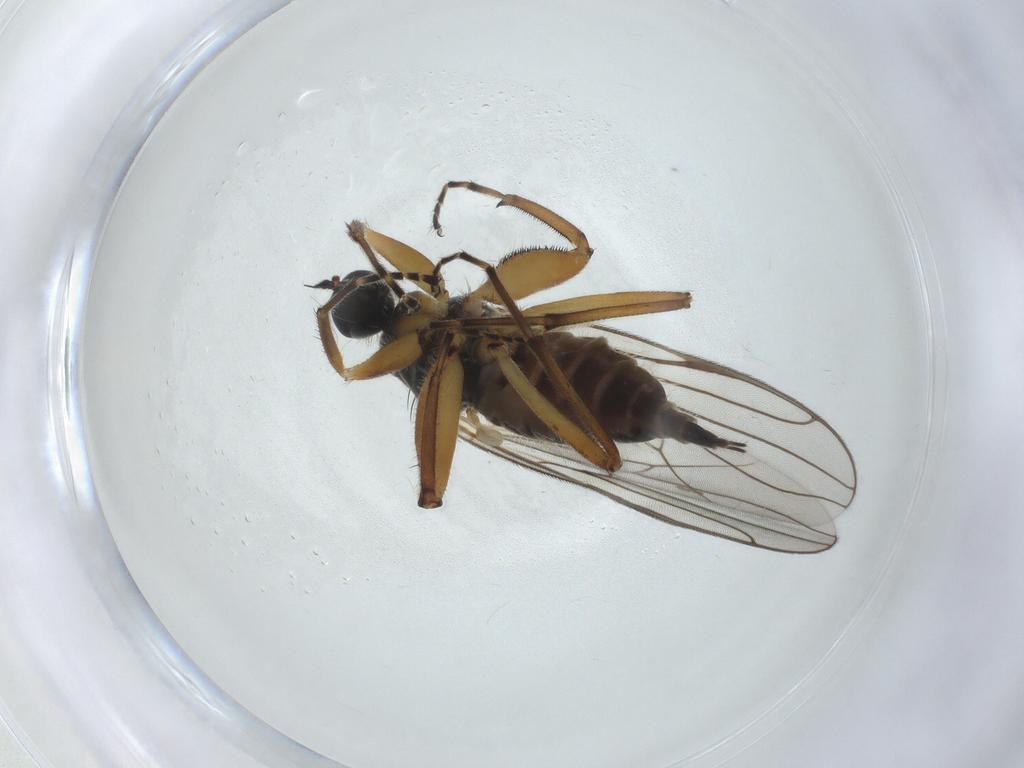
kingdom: Animalia
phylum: Arthropoda
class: Insecta
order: Diptera
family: Hybotidae
